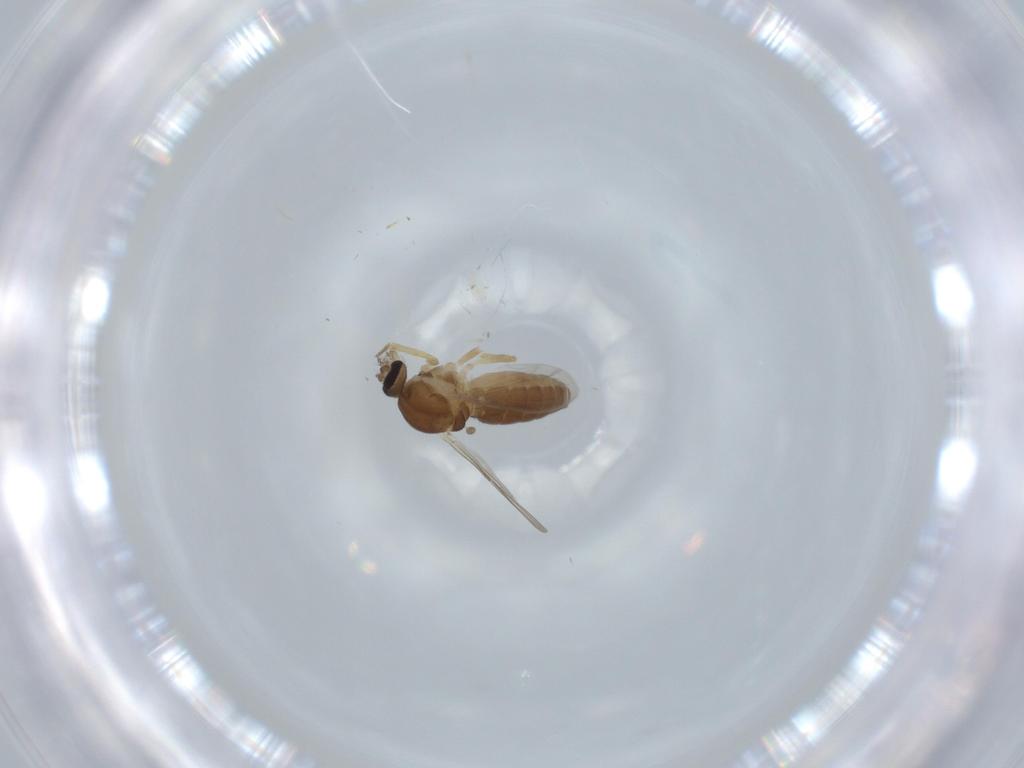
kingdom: Animalia
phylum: Arthropoda
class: Insecta
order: Diptera
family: Ceratopogonidae
